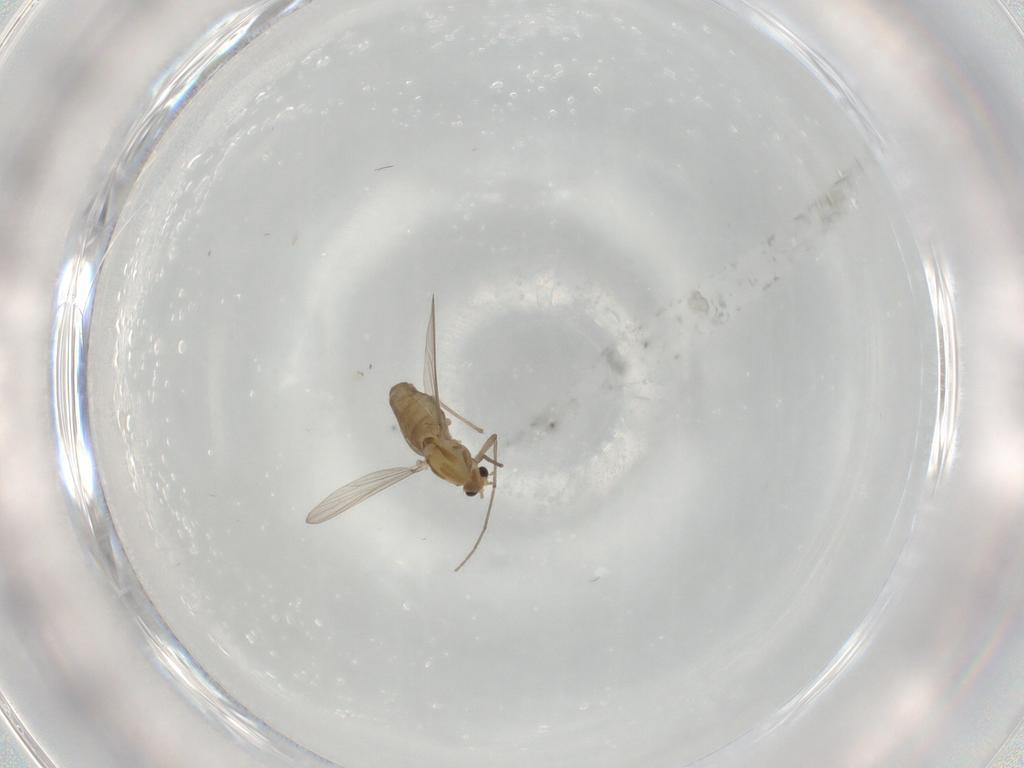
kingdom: Animalia
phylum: Arthropoda
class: Insecta
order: Diptera
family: Chironomidae
